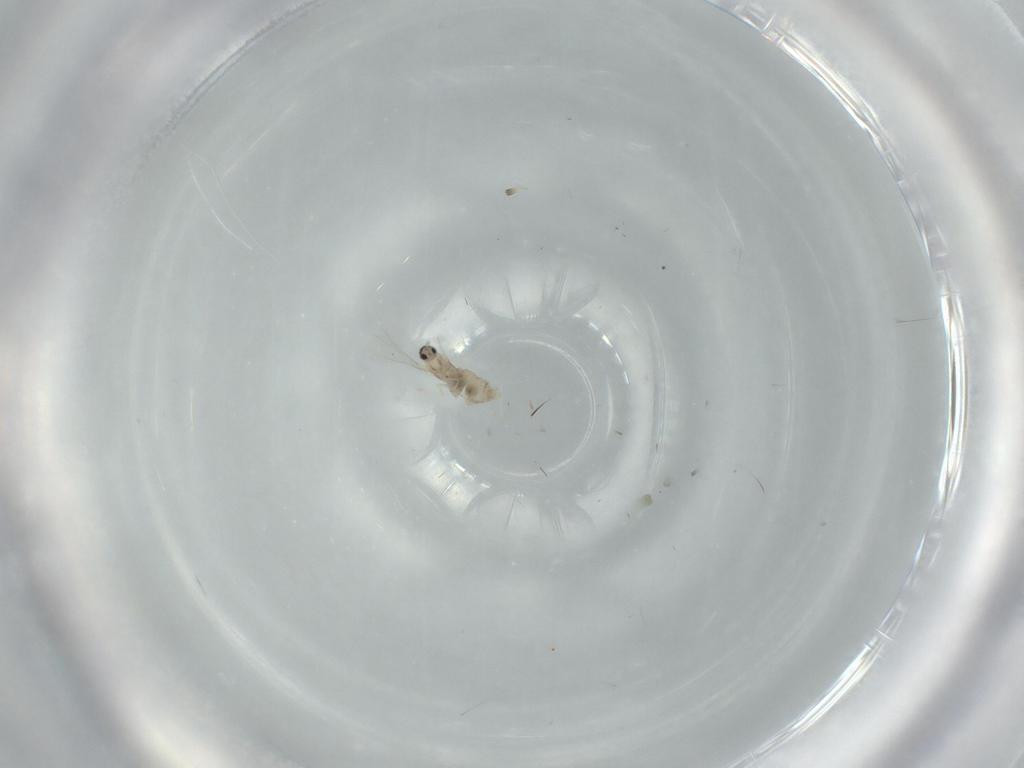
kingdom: Animalia
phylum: Arthropoda
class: Insecta
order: Diptera
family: Cecidomyiidae
